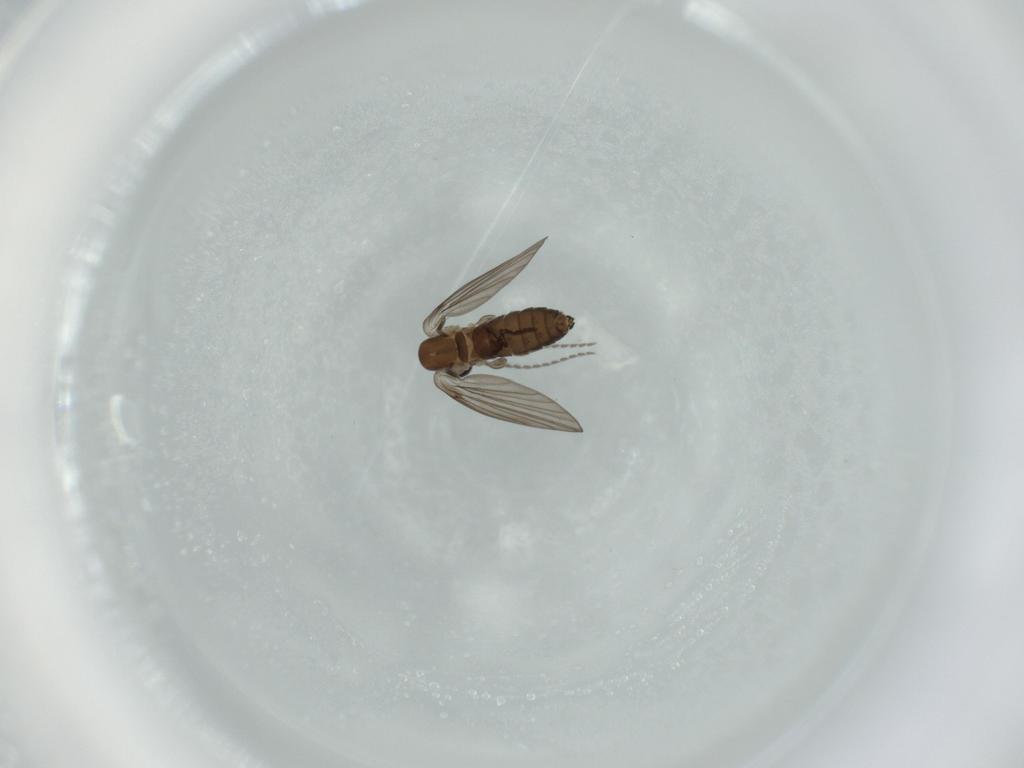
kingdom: Animalia
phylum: Arthropoda
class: Insecta
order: Diptera
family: Psychodidae
